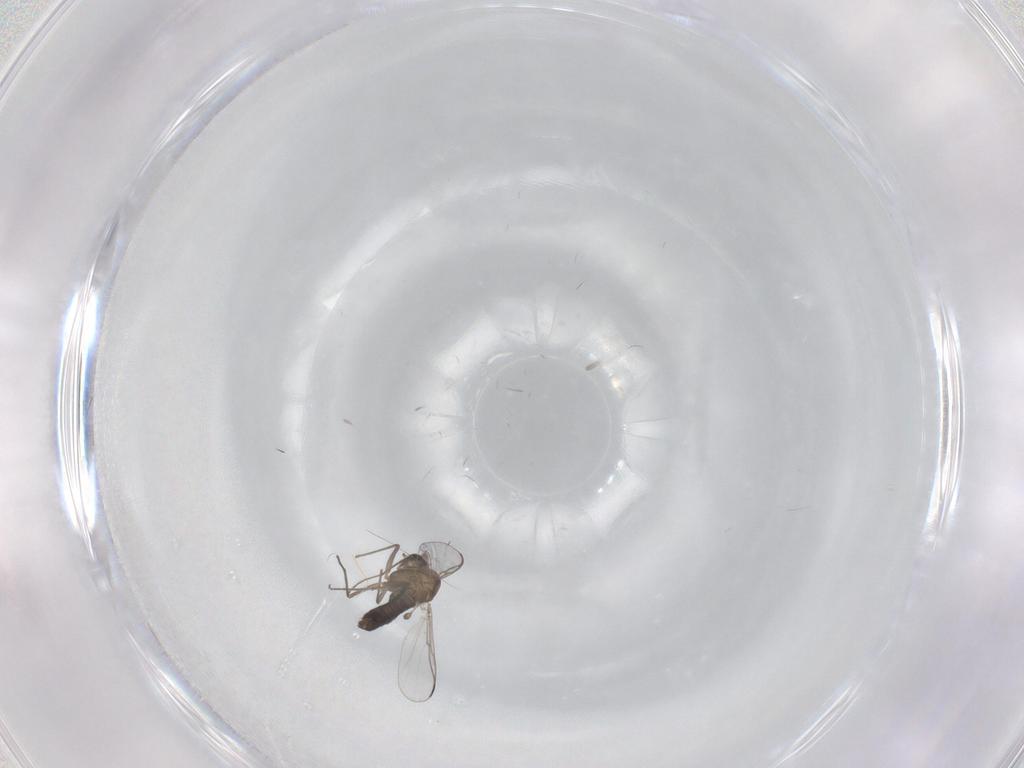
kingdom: Animalia
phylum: Arthropoda
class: Insecta
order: Diptera
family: Chironomidae
